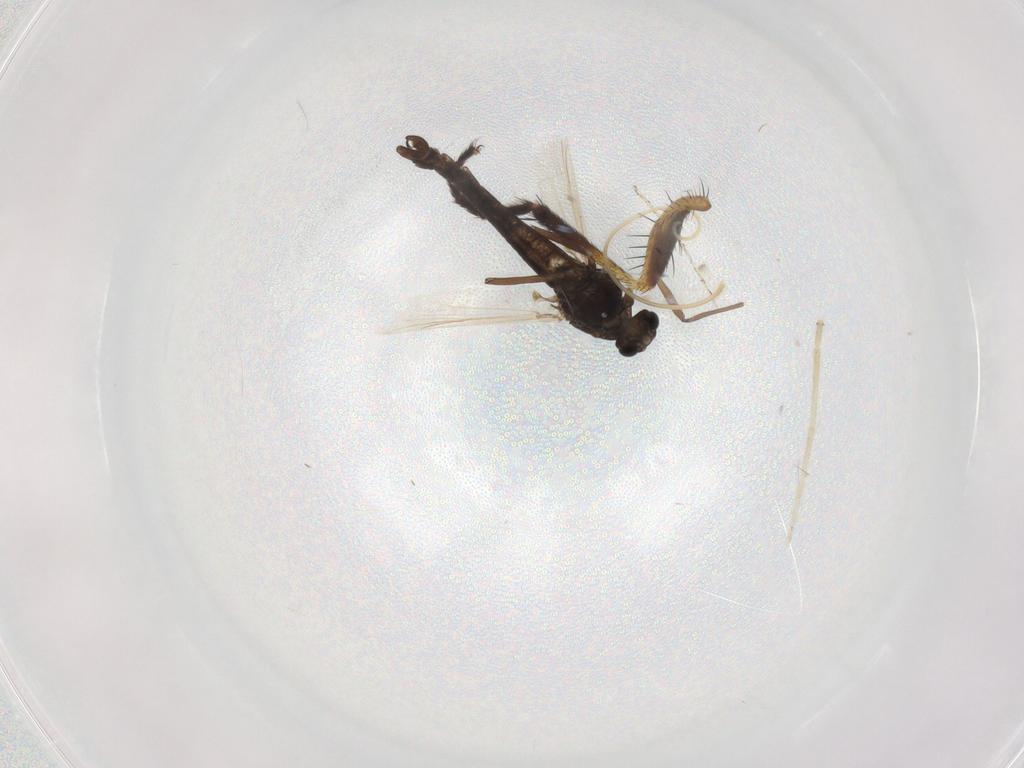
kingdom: Animalia
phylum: Arthropoda
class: Insecta
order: Diptera
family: Chironomidae
